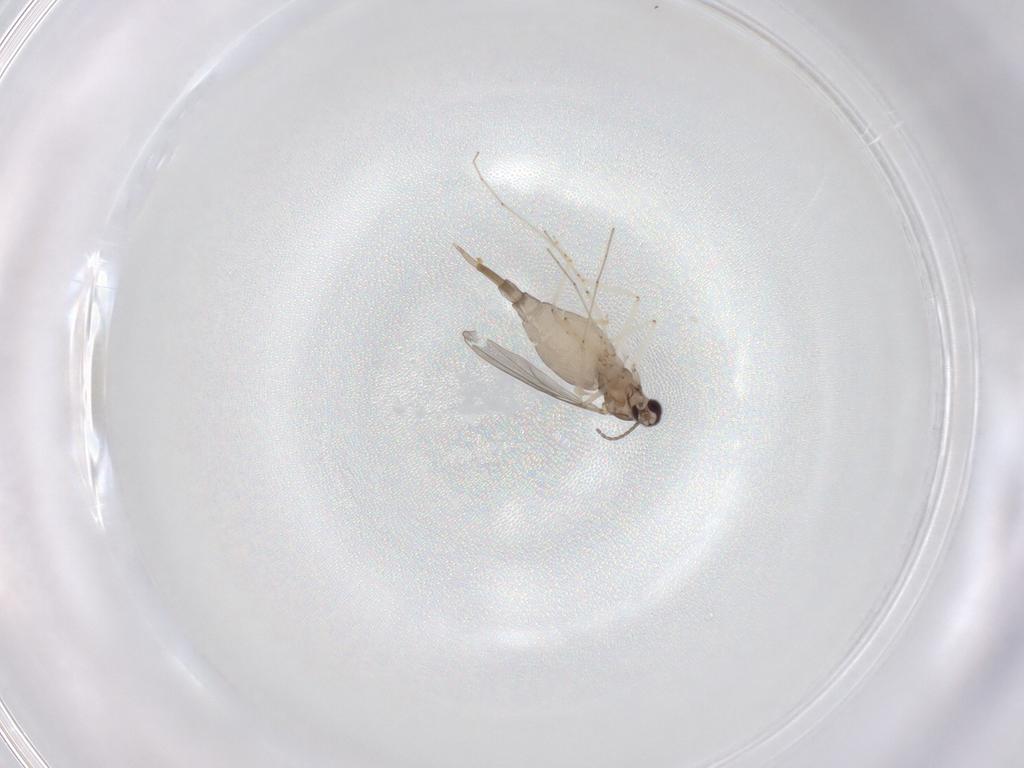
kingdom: Animalia
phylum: Arthropoda
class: Insecta
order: Diptera
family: Cecidomyiidae
